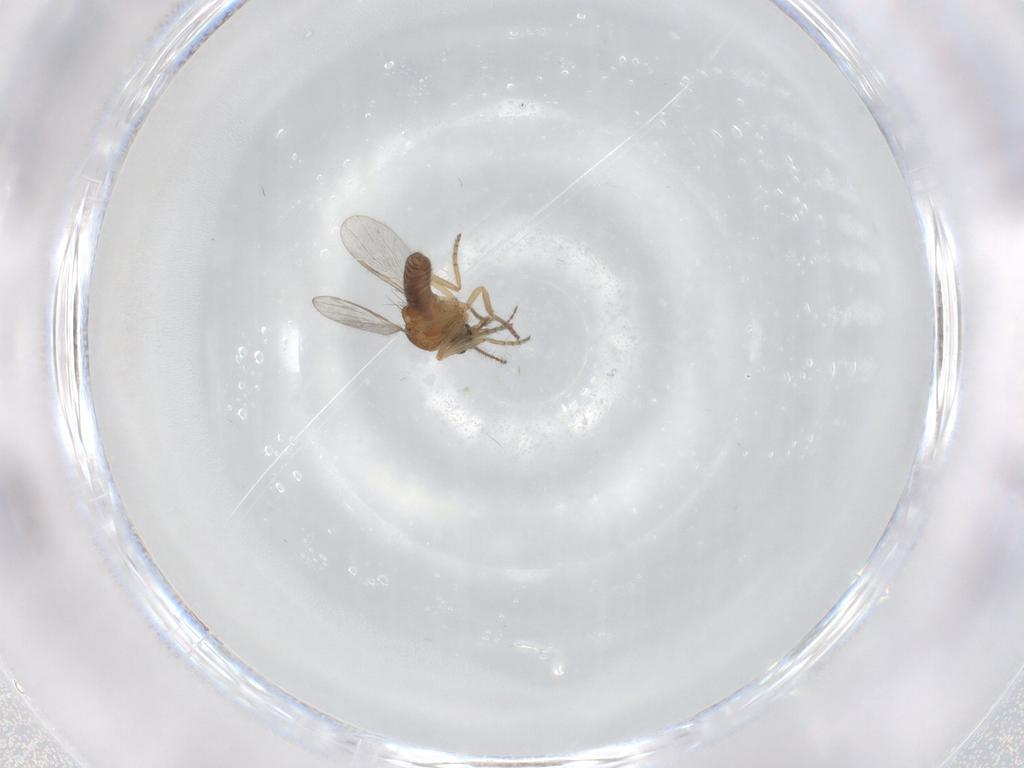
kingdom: Animalia
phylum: Arthropoda
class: Insecta
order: Diptera
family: Ceratopogonidae
